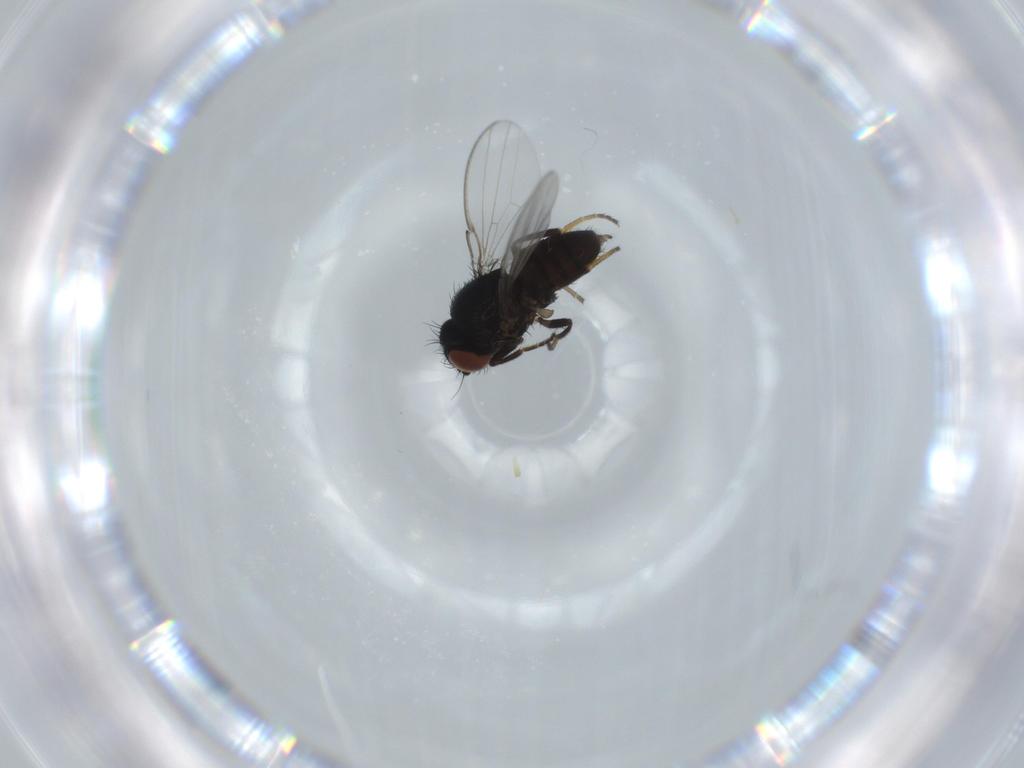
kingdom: Animalia
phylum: Arthropoda
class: Insecta
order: Diptera
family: Milichiidae
